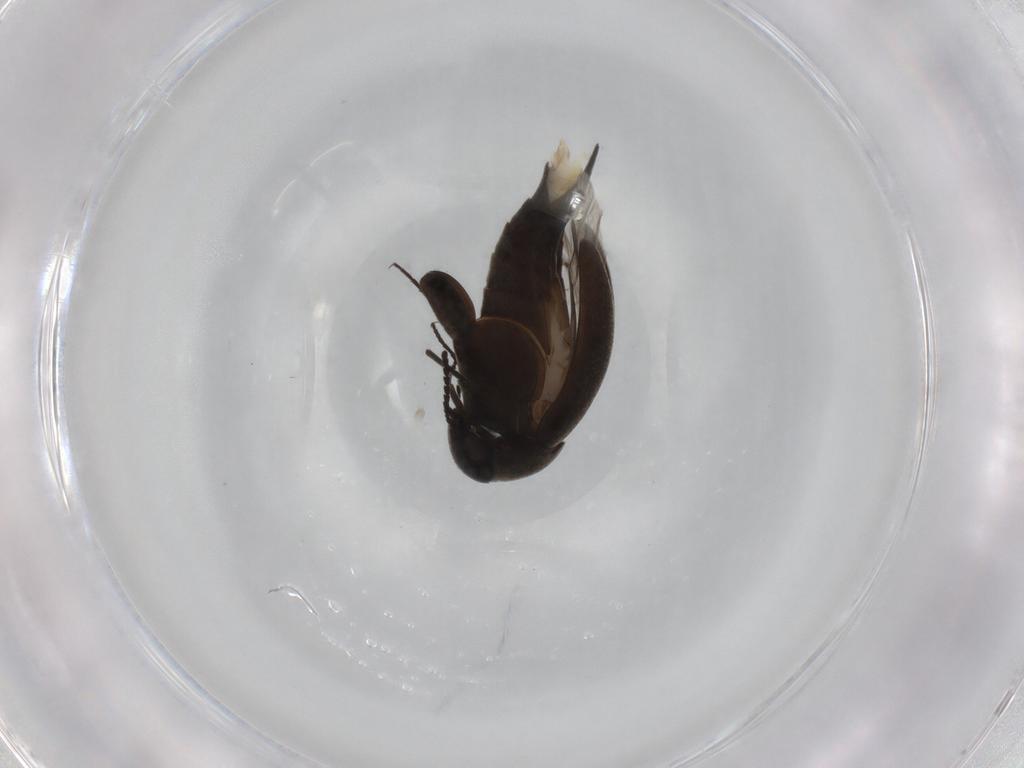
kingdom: Animalia
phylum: Arthropoda
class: Insecta
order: Coleoptera
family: Mordellidae
